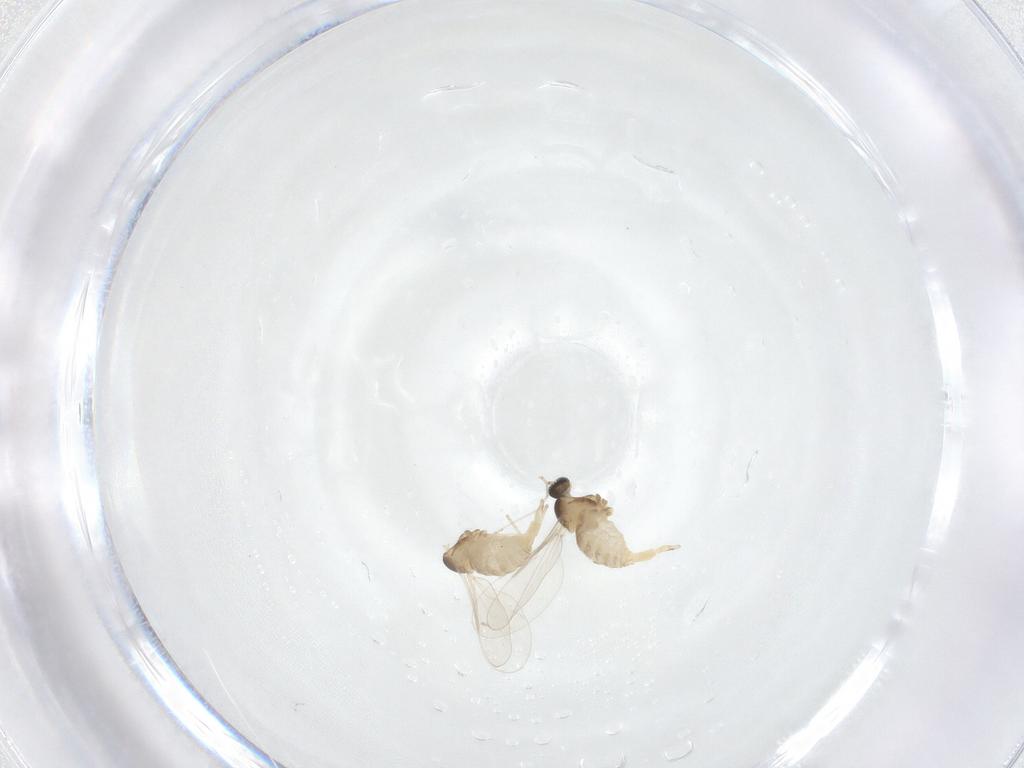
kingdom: Animalia
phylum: Arthropoda
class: Insecta
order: Diptera
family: Cecidomyiidae
